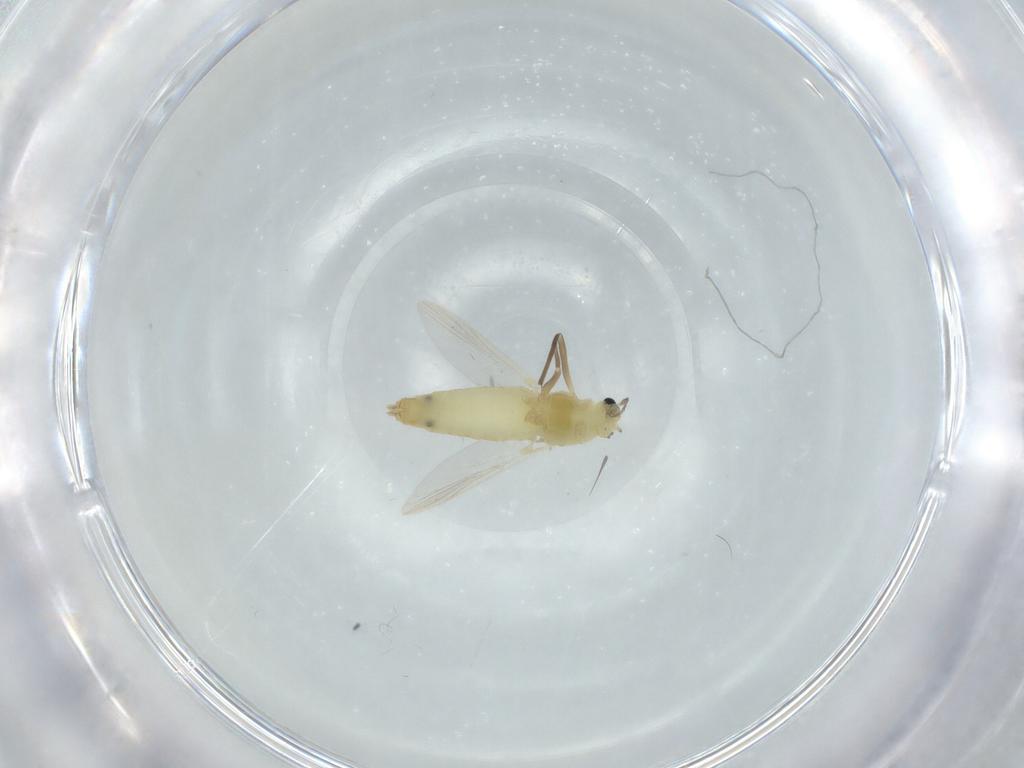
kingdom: Animalia
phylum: Arthropoda
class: Insecta
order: Diptera
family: Chironomidae
